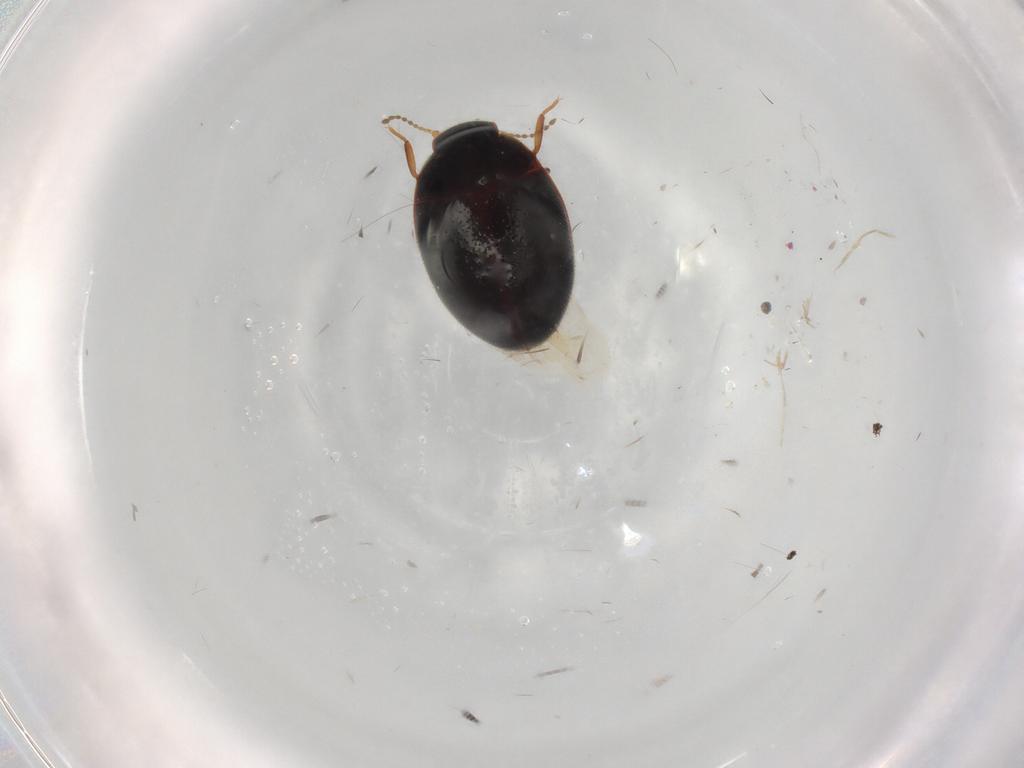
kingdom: Animalia
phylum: Arthropoda
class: Insecta
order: Coleoptera
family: Limnichidae
